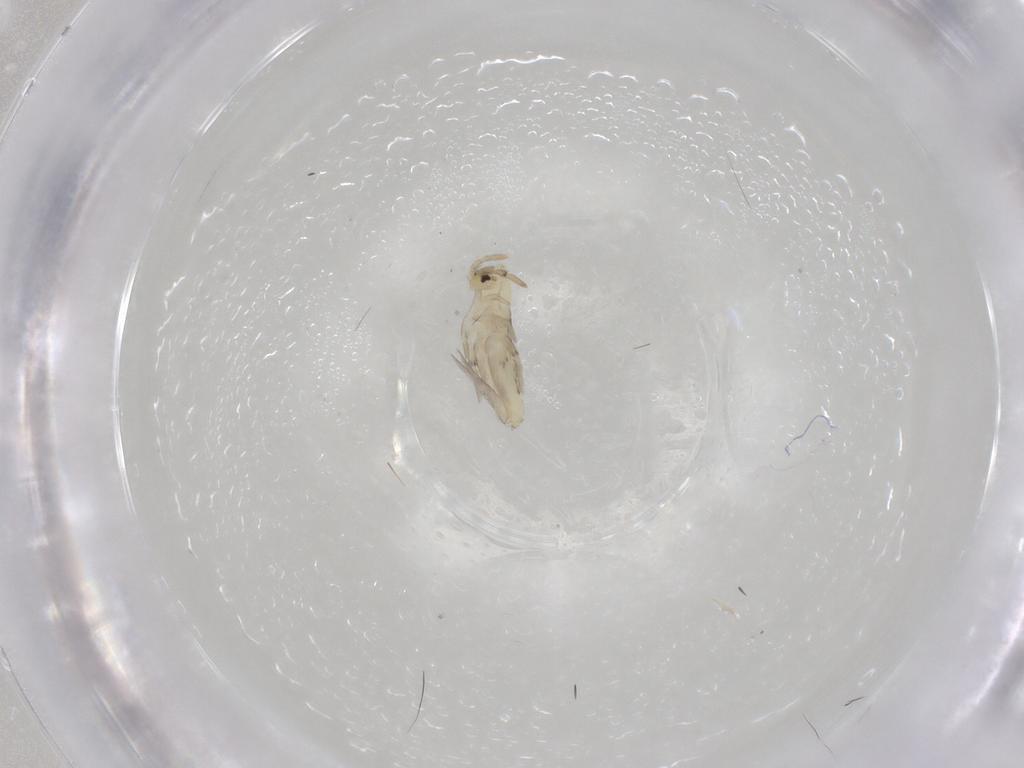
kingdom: Animalia
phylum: Arthropoda
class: Collembola
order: Entomobryomorpha
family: Entomobryidae
